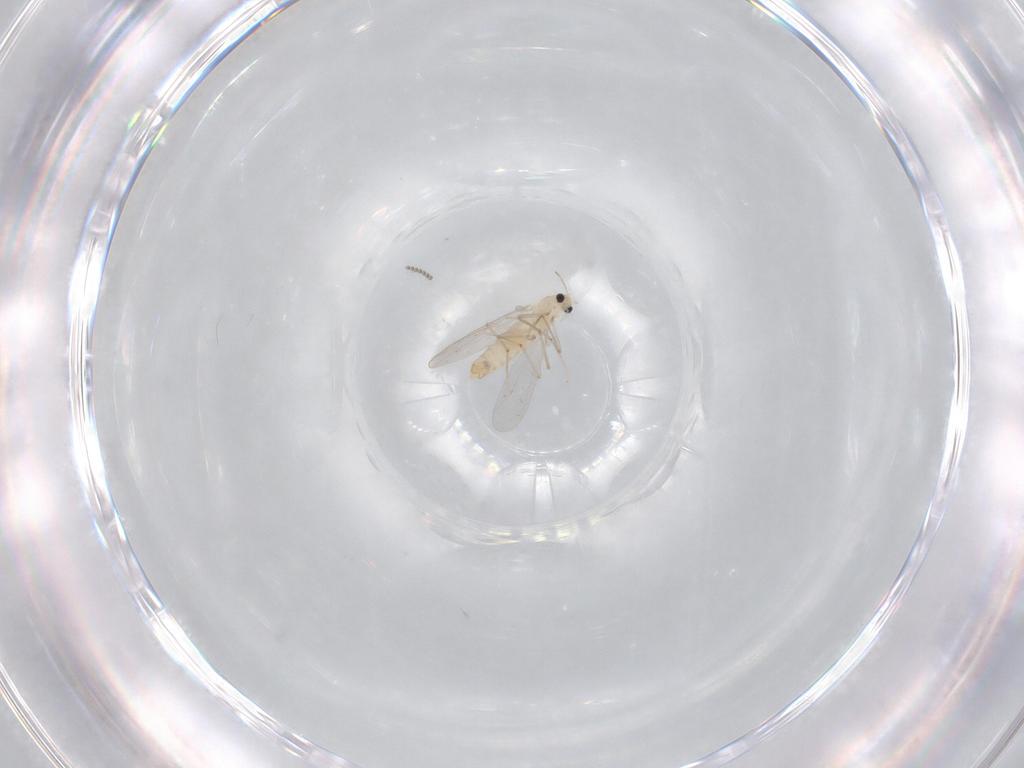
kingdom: Animalia
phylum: Arthropoda
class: Insecta
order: Diptera
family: Chironomidae
